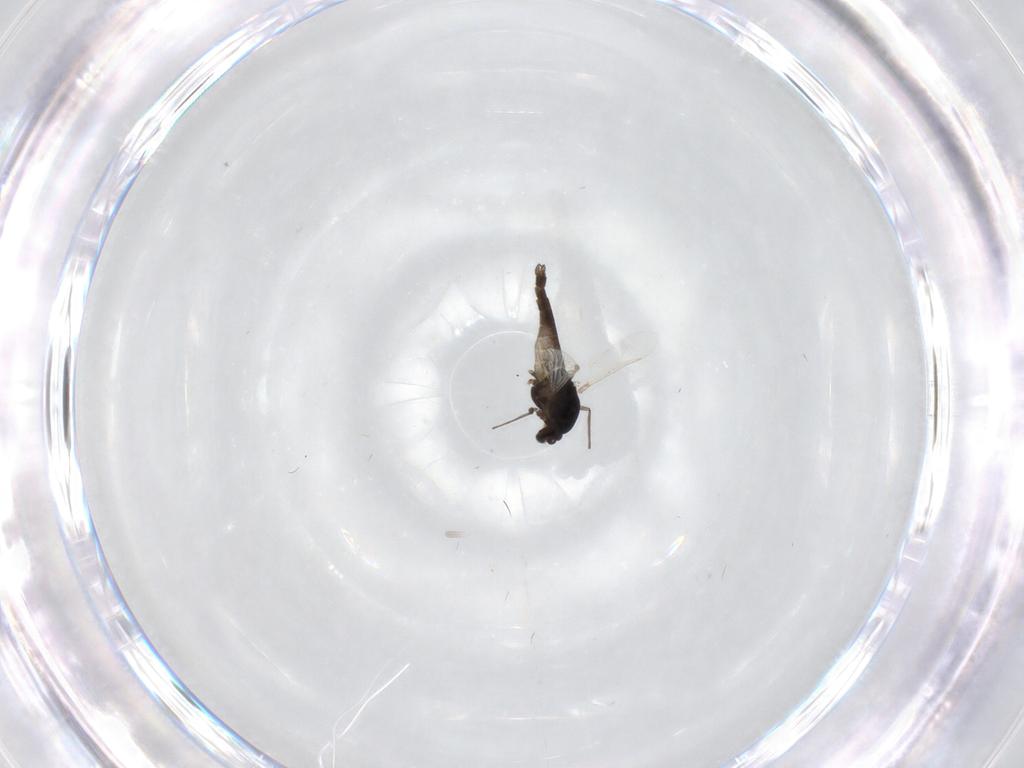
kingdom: Animalia
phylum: Arthropoda
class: Insecta
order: Diptera
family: Chironomidae
